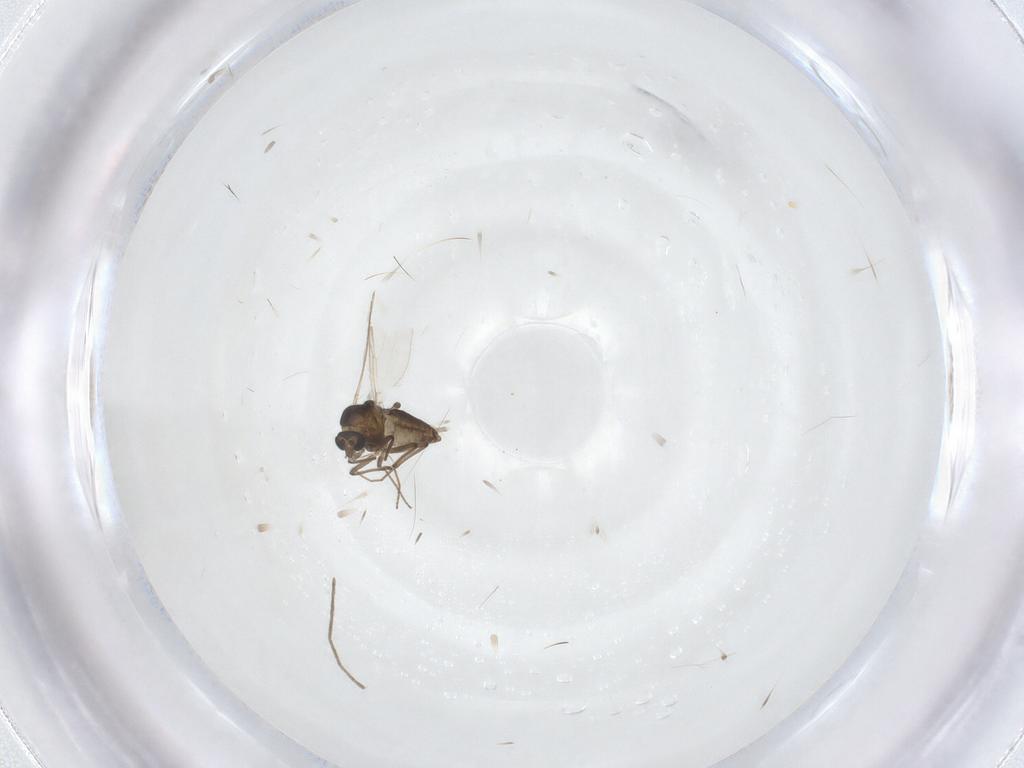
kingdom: Animalia
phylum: Arthropoda
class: Insecta
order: Diptera
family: Chironomidae
